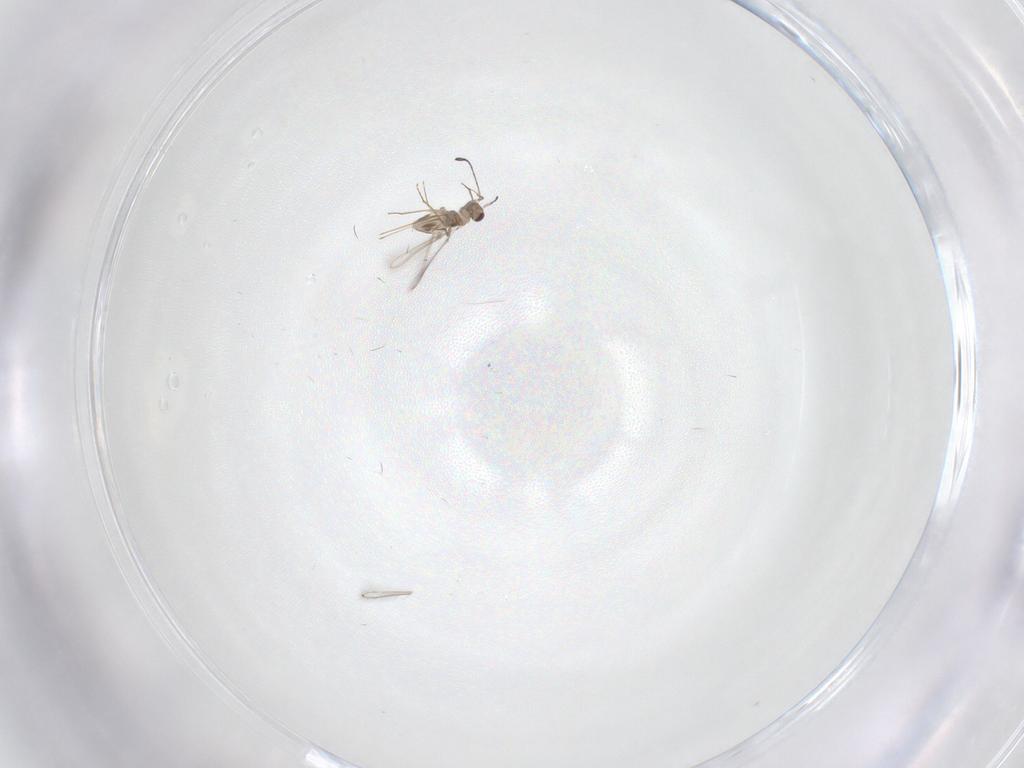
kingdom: Animalia
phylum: Arthropoda
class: Insecta
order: Hymenoptera
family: Mymaridae
